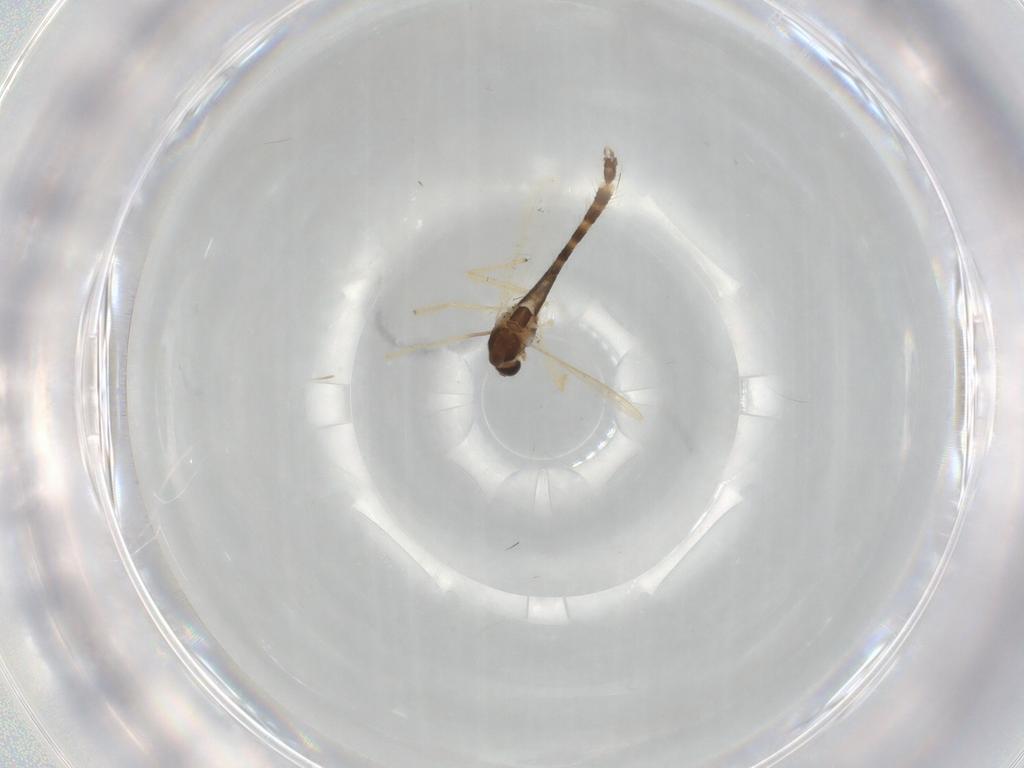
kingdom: Animalia
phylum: Arthropoda
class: Insecta
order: Diptera
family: Chironomidae
